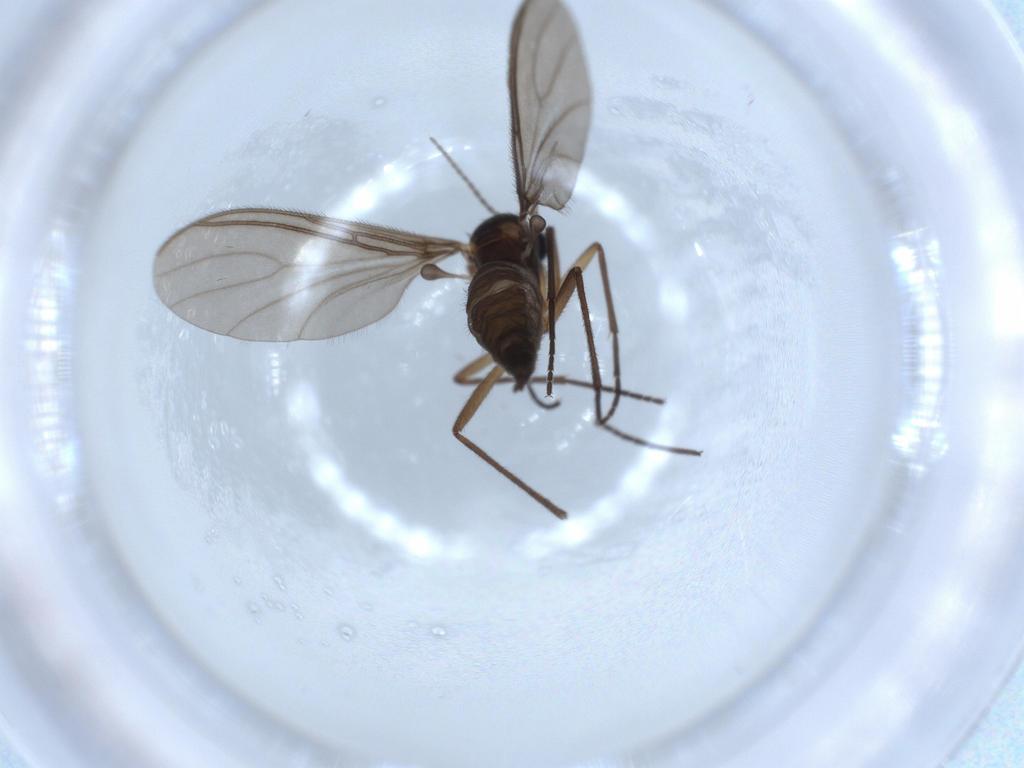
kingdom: Animalia
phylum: Arthropoda
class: Insecta
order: Diptera
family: Sciaridae
